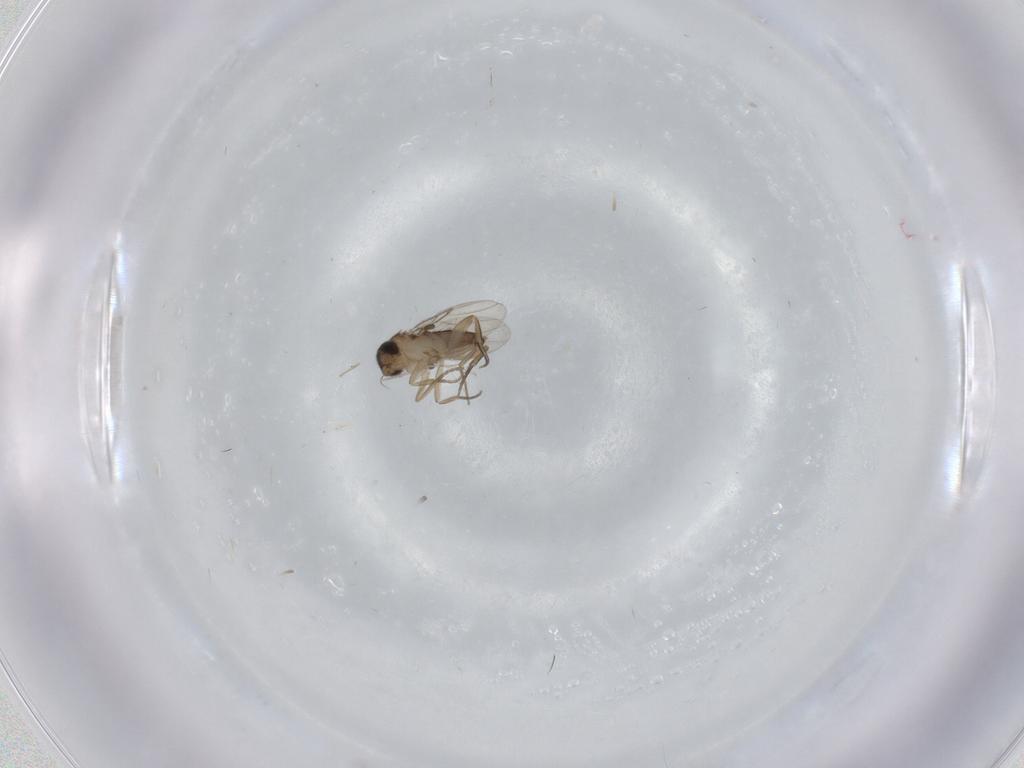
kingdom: Animalia
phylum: Arthropoda
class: Insecta
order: Diptera
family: Phoridae
